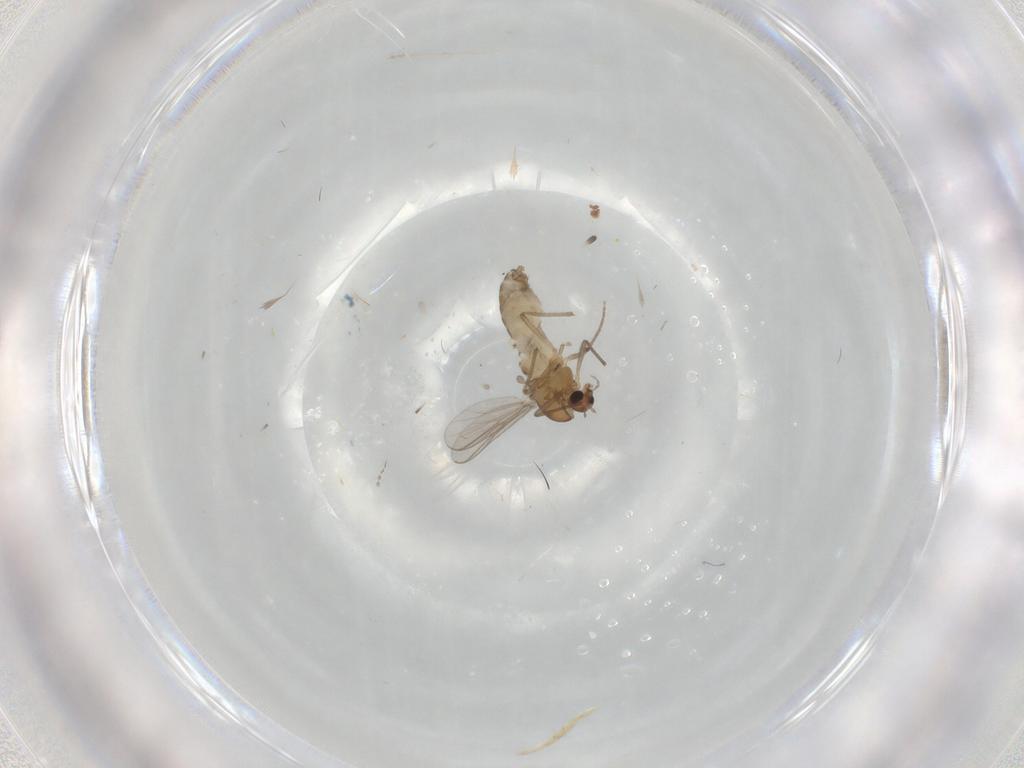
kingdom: Animalia
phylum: Arthropoda
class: Insecta
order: Diptera
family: Chironomidae
